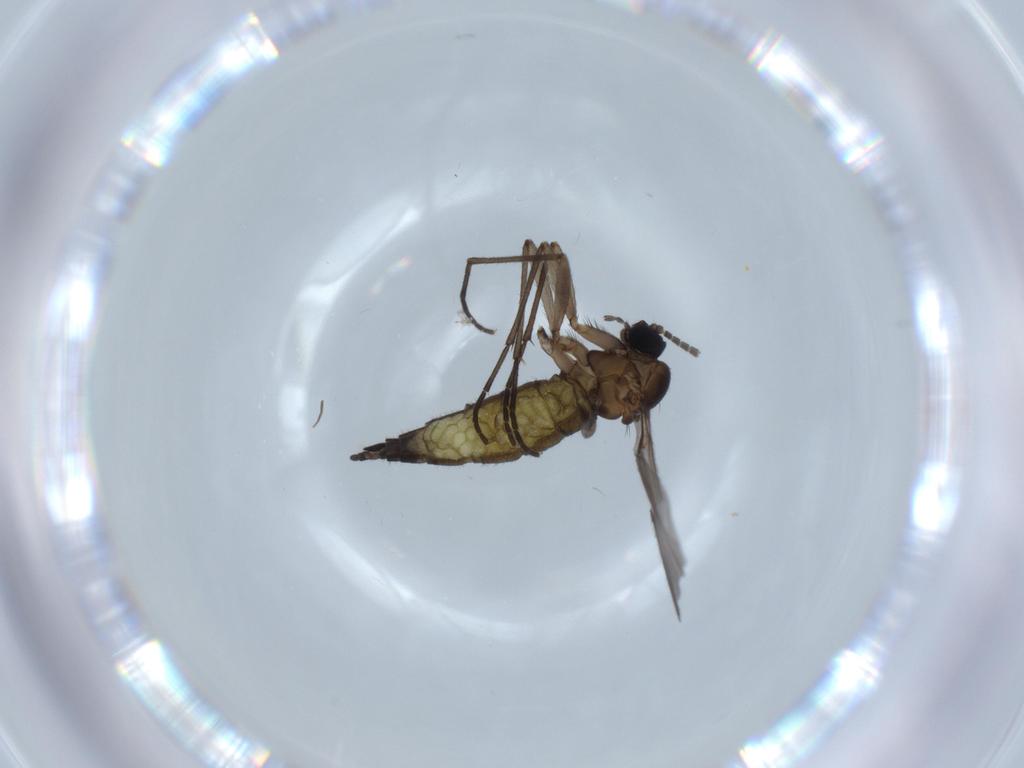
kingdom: Animalia
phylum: Arthropoda
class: Insecta
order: Diptera
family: Sciaridae
